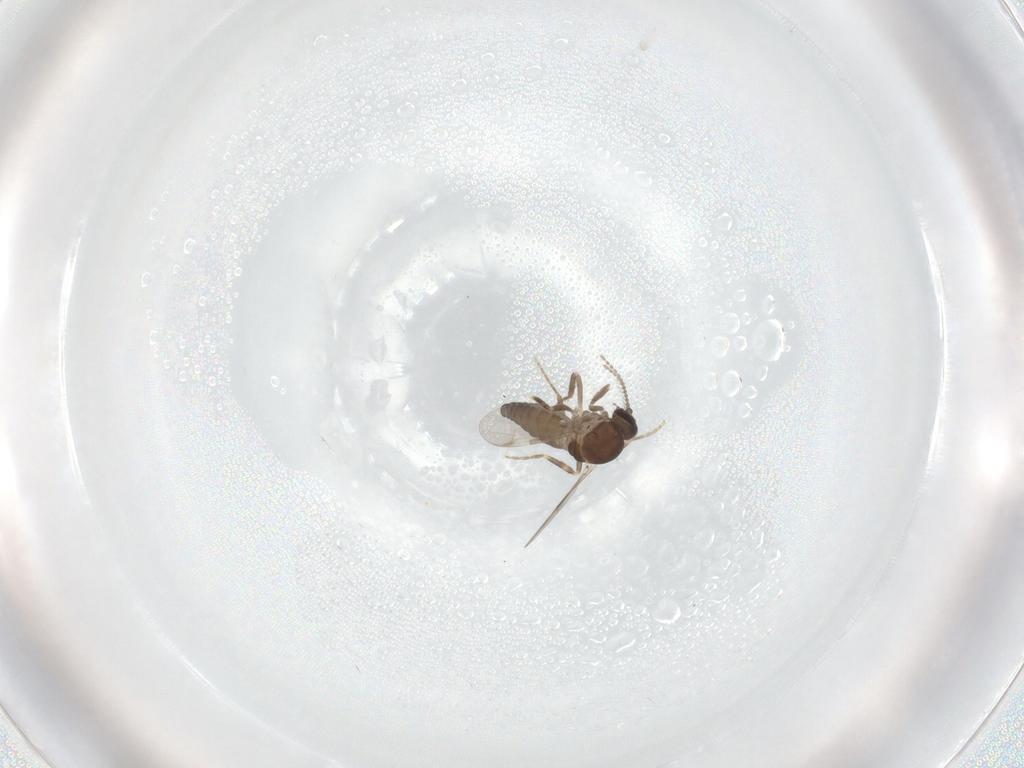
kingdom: Animalia
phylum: Arthropoda
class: Insecta
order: Diptera
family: Ceratopogonidae
